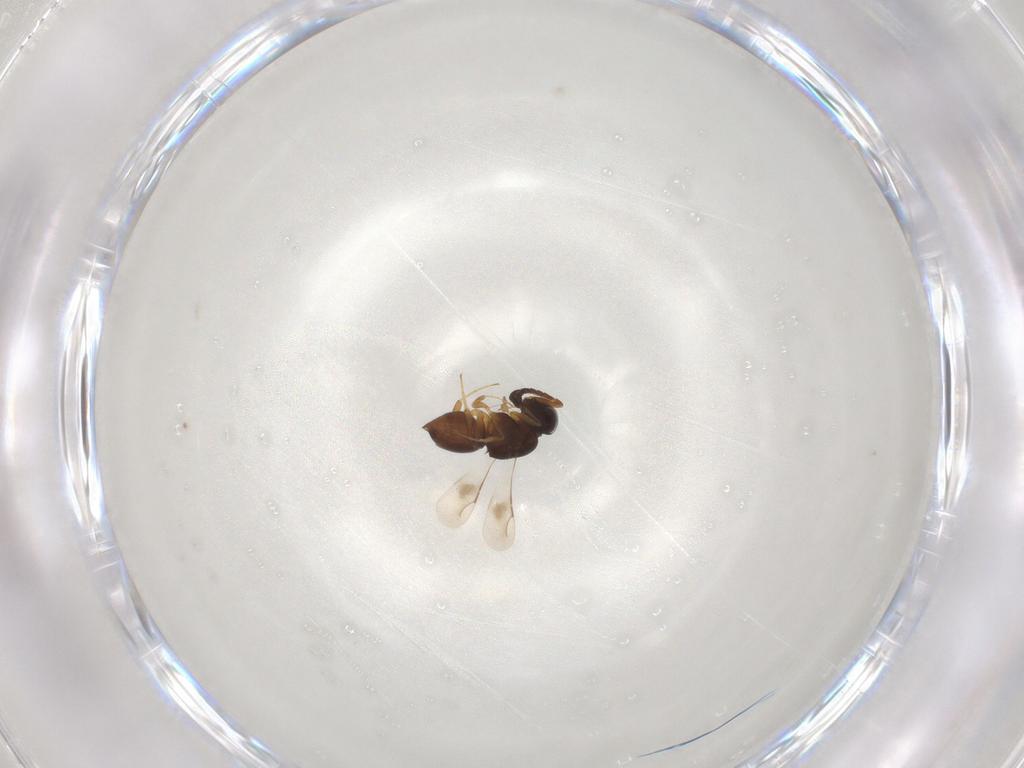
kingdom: Animalia
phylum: Arthropoda
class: Insecta
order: Hymenoptera
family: Ceraphronidae
